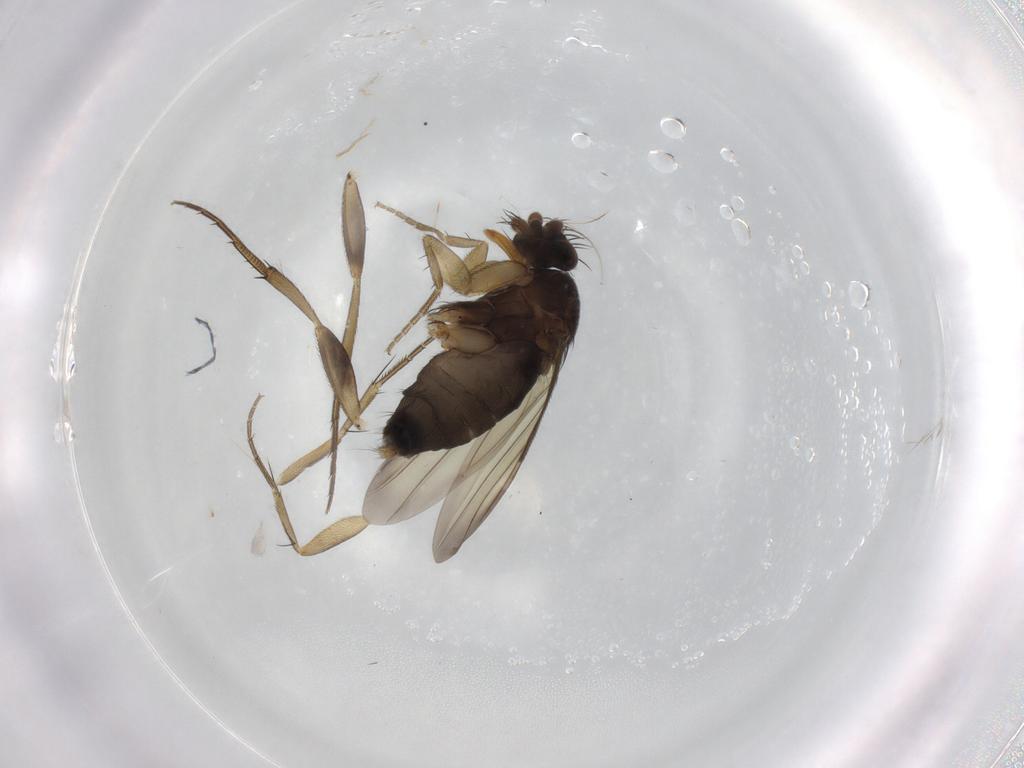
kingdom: Animalia
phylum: Arthropoda
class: Insecta
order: Diptera
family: Phoridae
